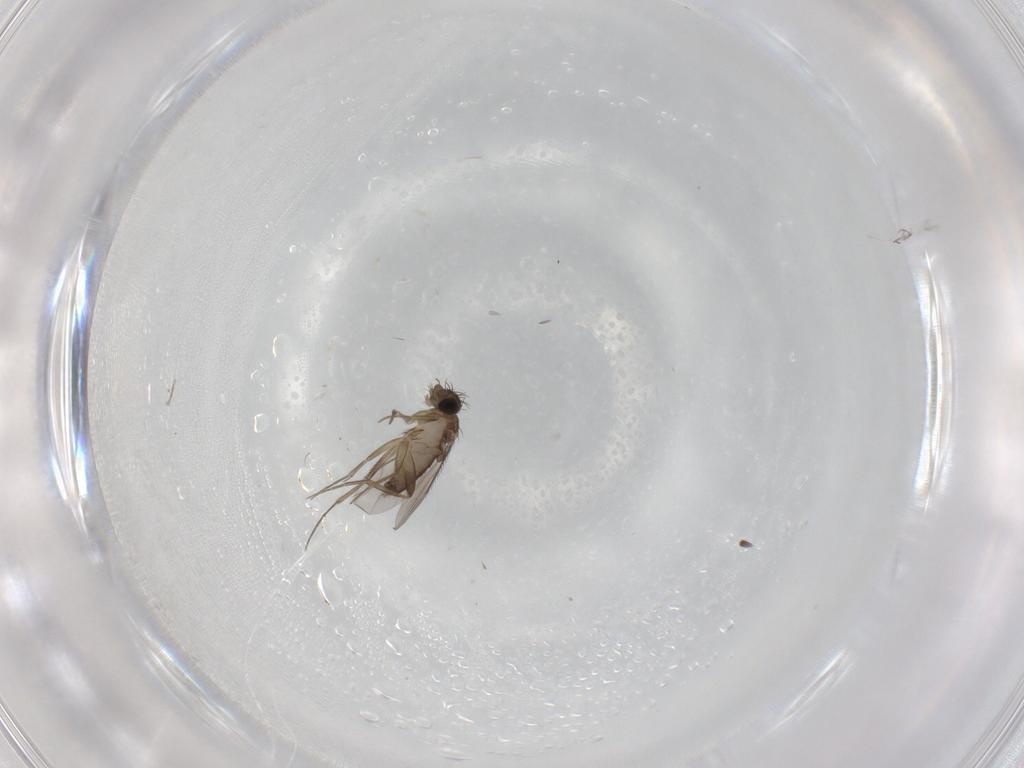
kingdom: Animalia
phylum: Arthropoda
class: Insecta
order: Diptera
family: Phoridae
